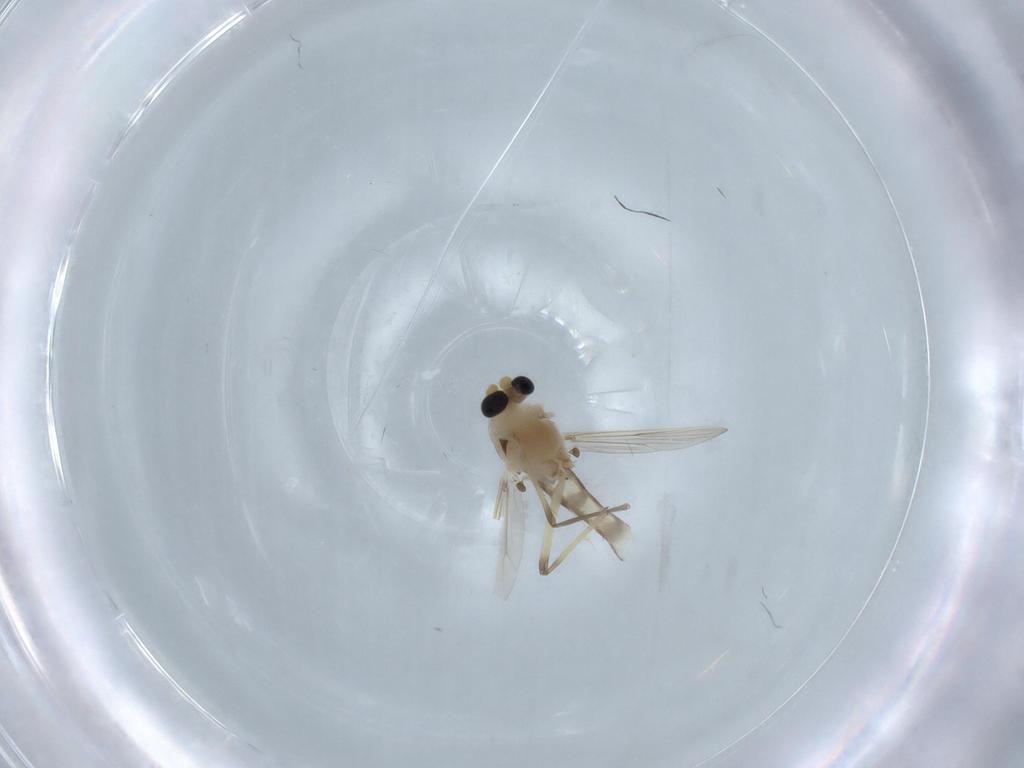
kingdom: Animalia
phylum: Arthropoda
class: Insecta
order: Diptera
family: Chironomidae
